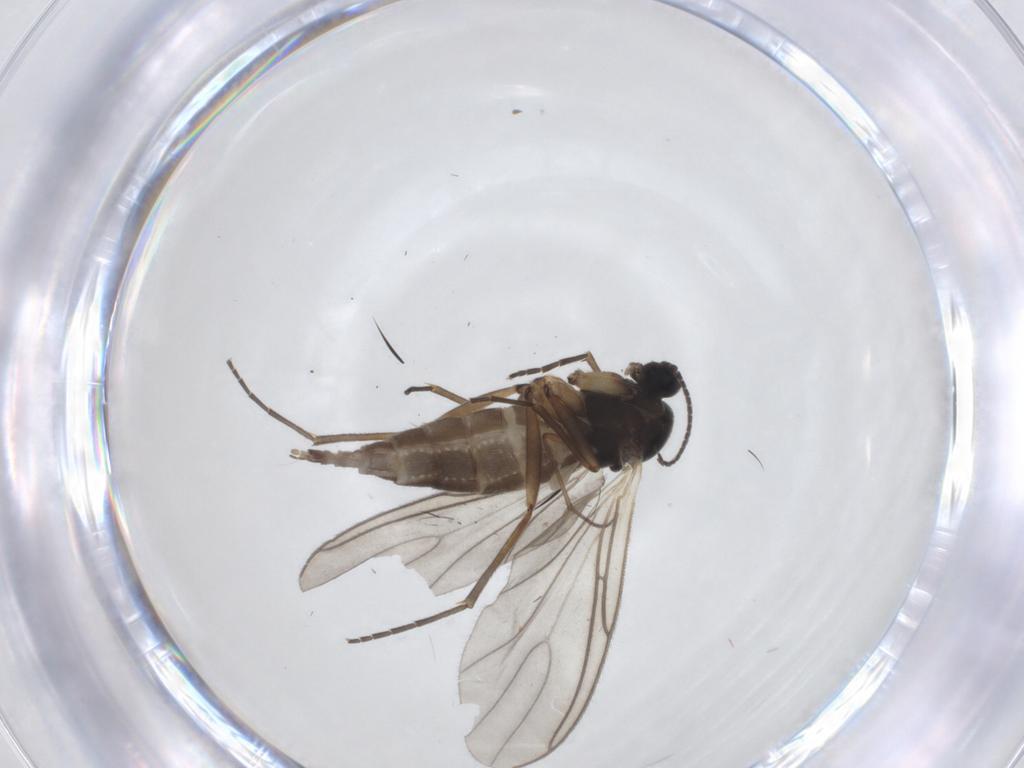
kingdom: Animalia
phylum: Arthropoda
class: Insecta
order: Diptera
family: Sciaridae
